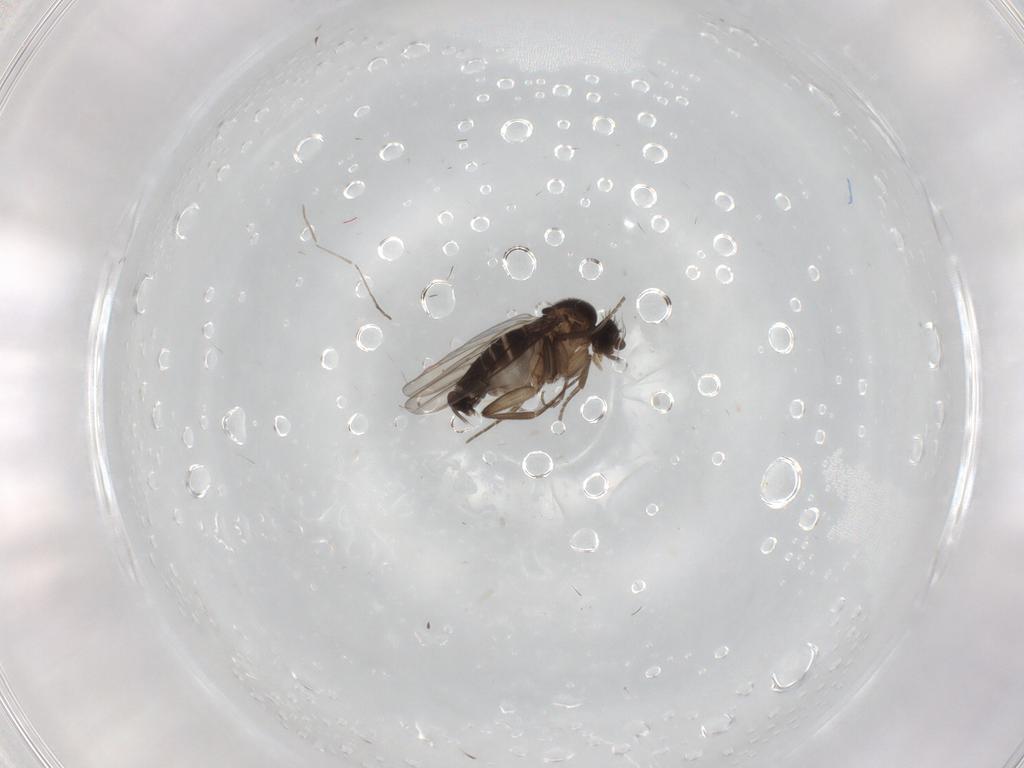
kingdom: Animalia
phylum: Arthropoda
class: Insecta
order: Diptera
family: Phoridae
